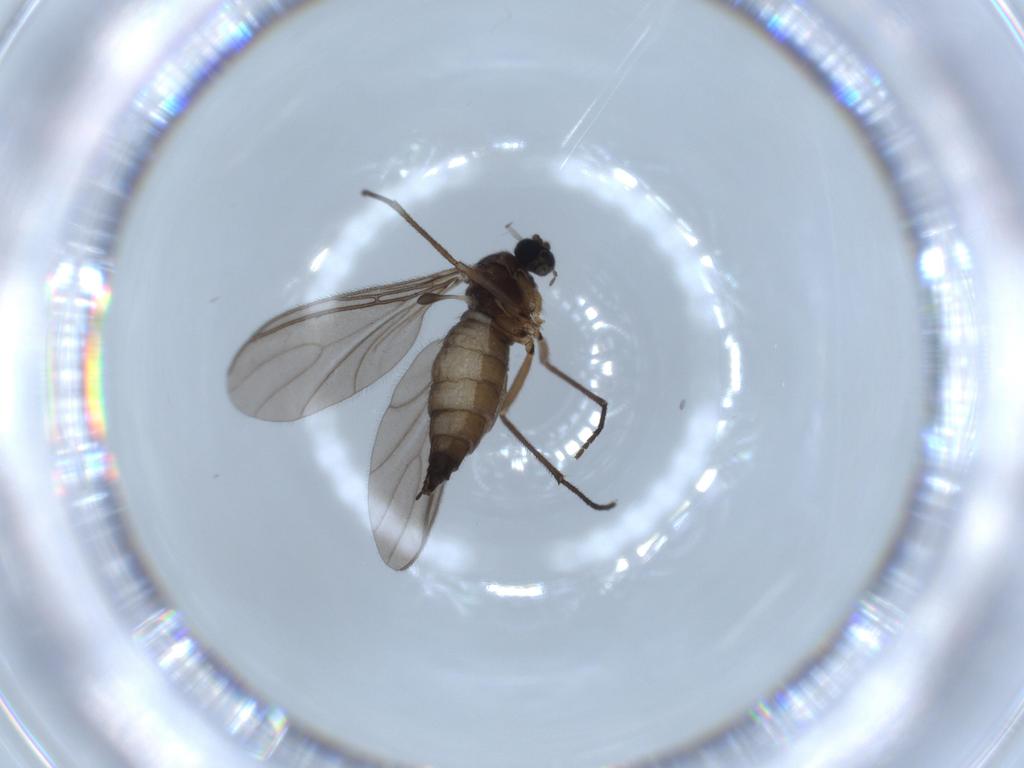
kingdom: Animalia
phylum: Arthropoda
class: Insecta
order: Diptera
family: Sciaridae
